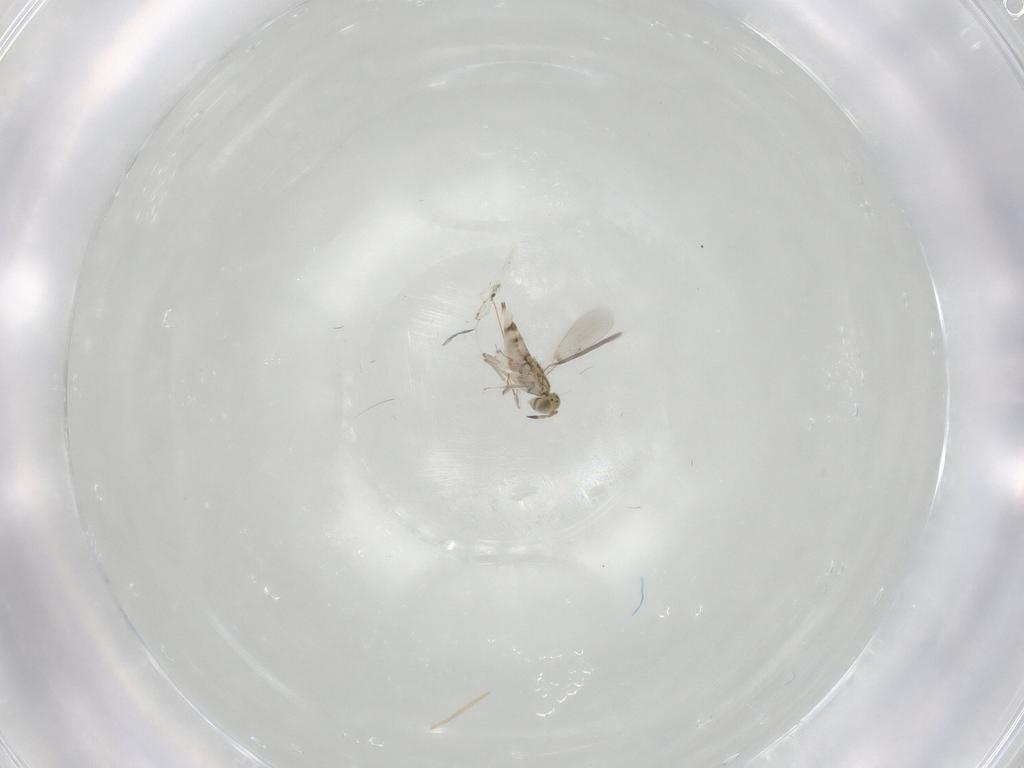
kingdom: Animalia
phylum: Arthropoda
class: Insecta
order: Hymenoptera
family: Aphelinidae
